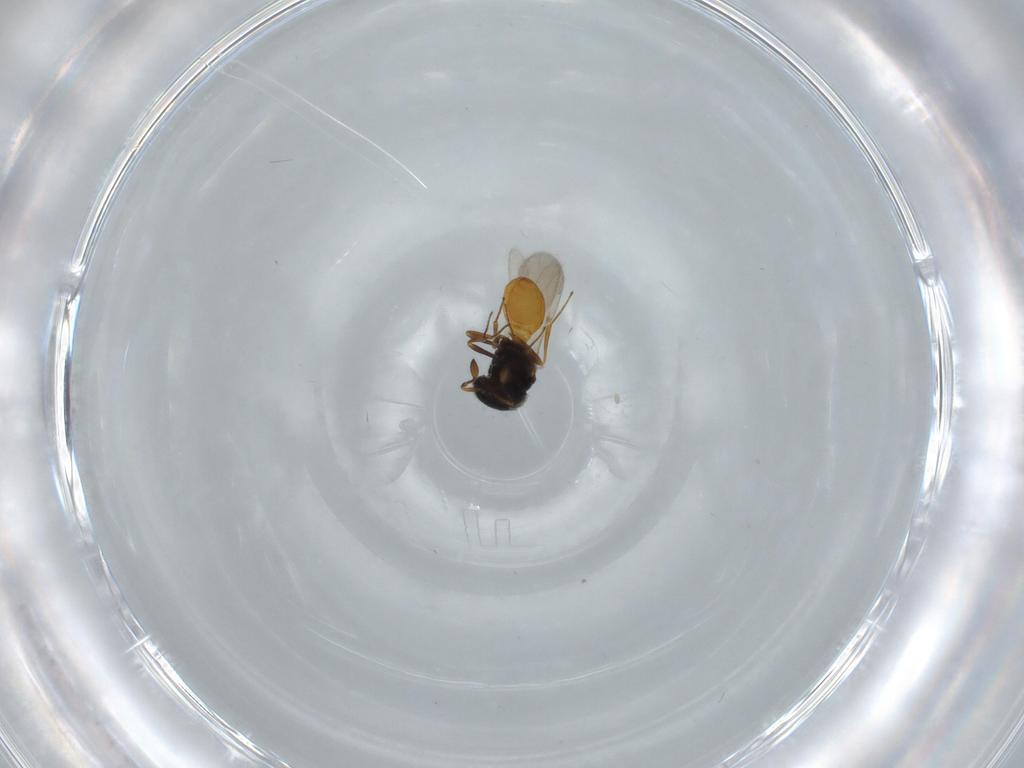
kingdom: Animalia
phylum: Arthropoda
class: Insecta
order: Hymenoptera
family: Scelionidae
